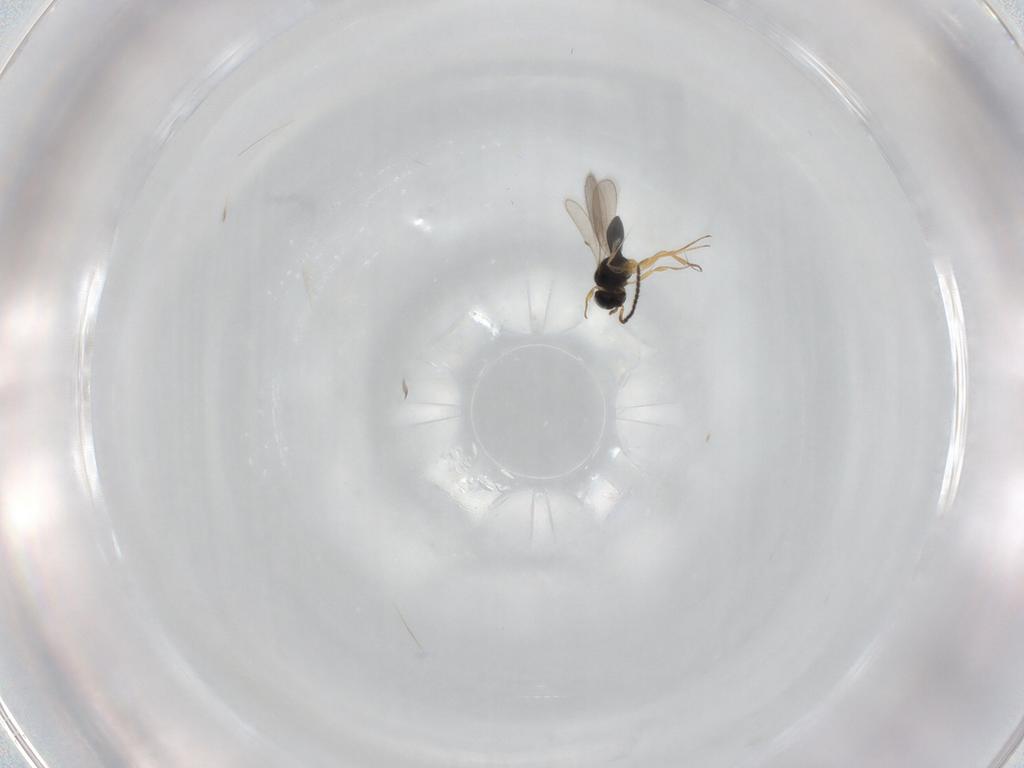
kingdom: Animalia
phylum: Arthropoda
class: Insecta
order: Hymenoptera
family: Scelionidae
